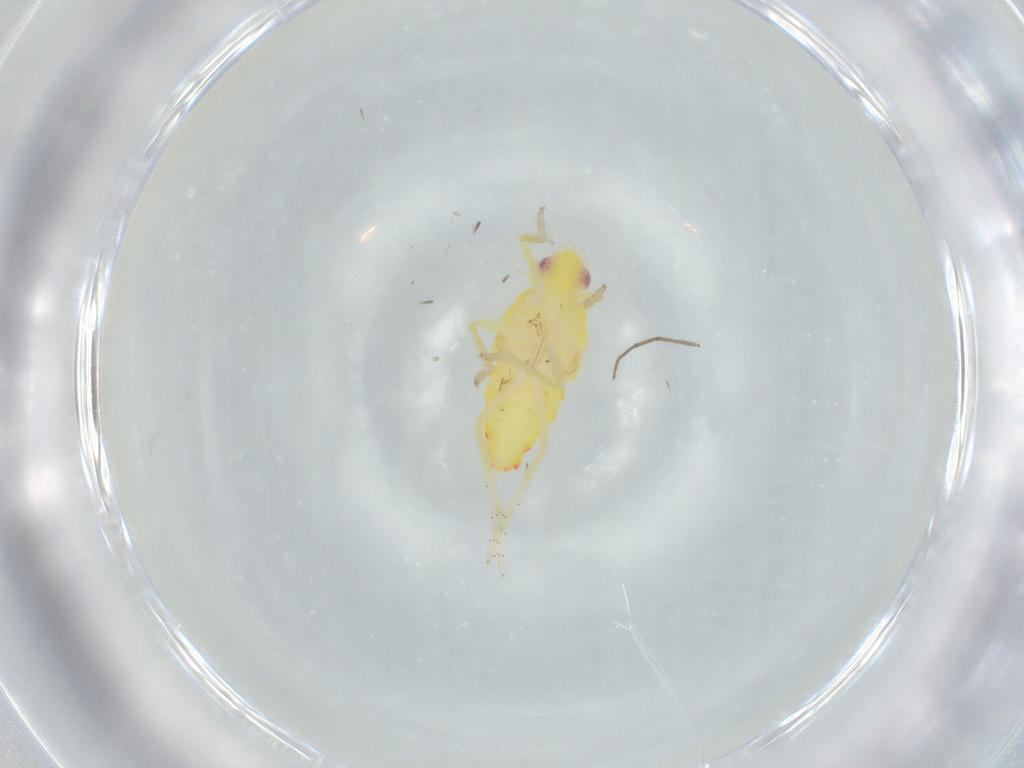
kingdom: Animalia
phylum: Arthropoda
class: Insecta
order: Hemiptera
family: Tropiduchidae
